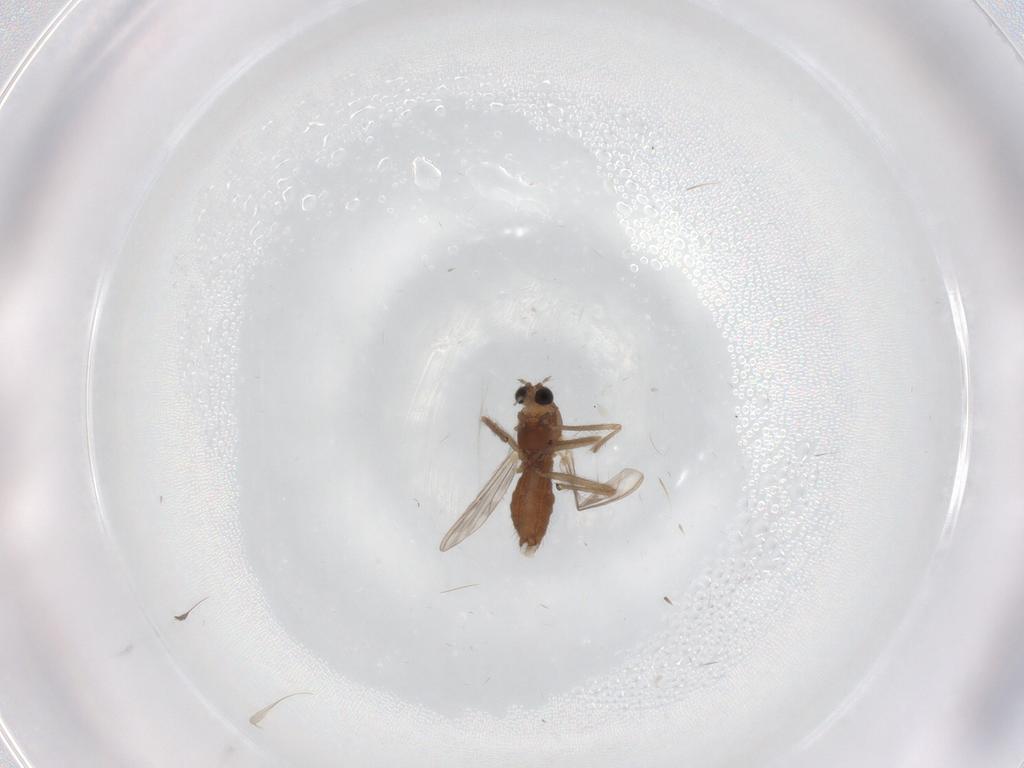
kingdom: Animalia
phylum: Arthropoda
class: Insecta
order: Diptera
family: Chironomidae
